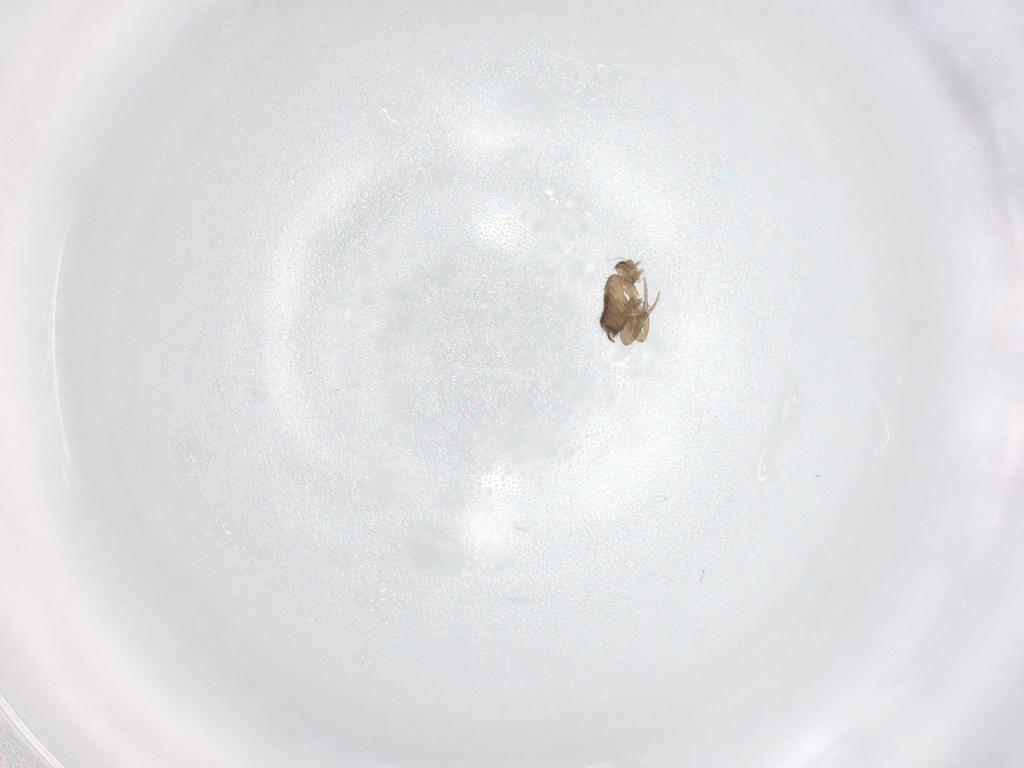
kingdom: Animalia
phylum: Arthropoda
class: Insecta
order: Diptera
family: Phoridae
